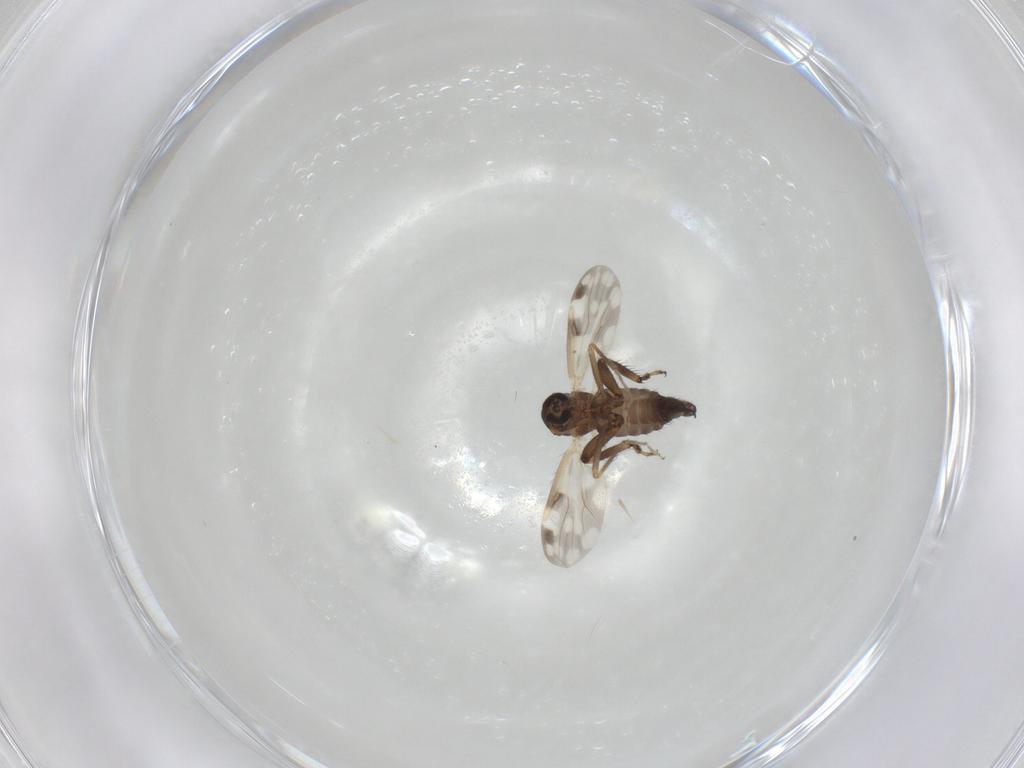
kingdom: Animalia
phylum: Arthropoda
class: Insecta
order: Diptera
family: Ceratopogonidae
